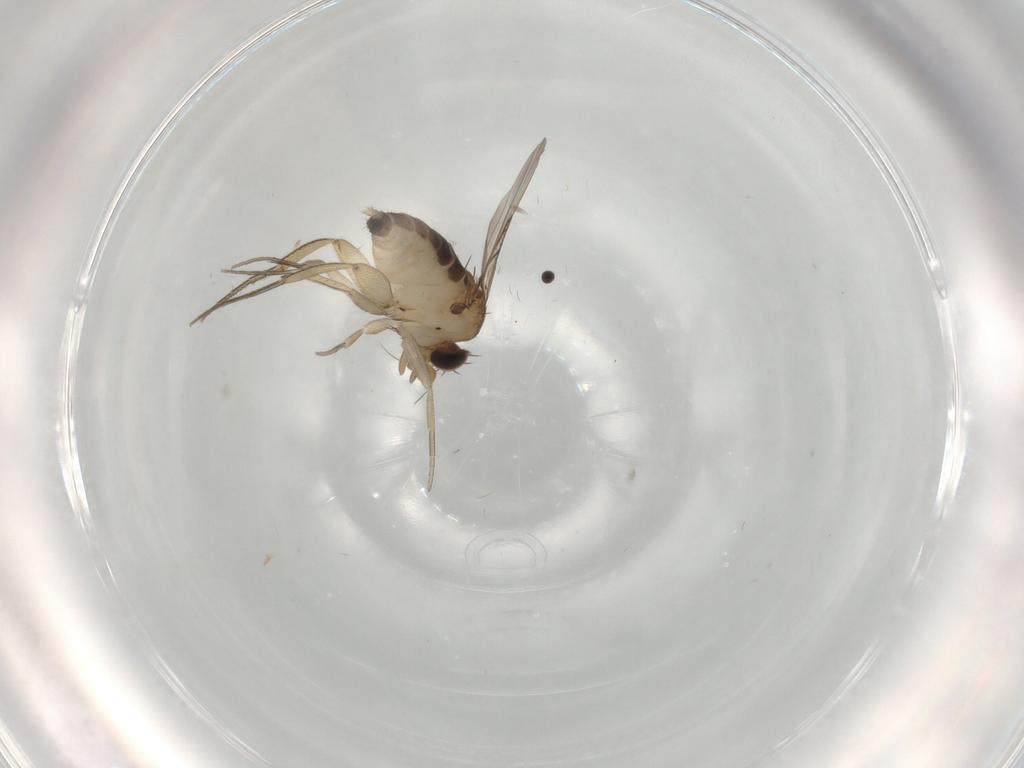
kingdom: Animalia
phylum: Arthropoda
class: Insecta
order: Diptera
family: Phoridae
